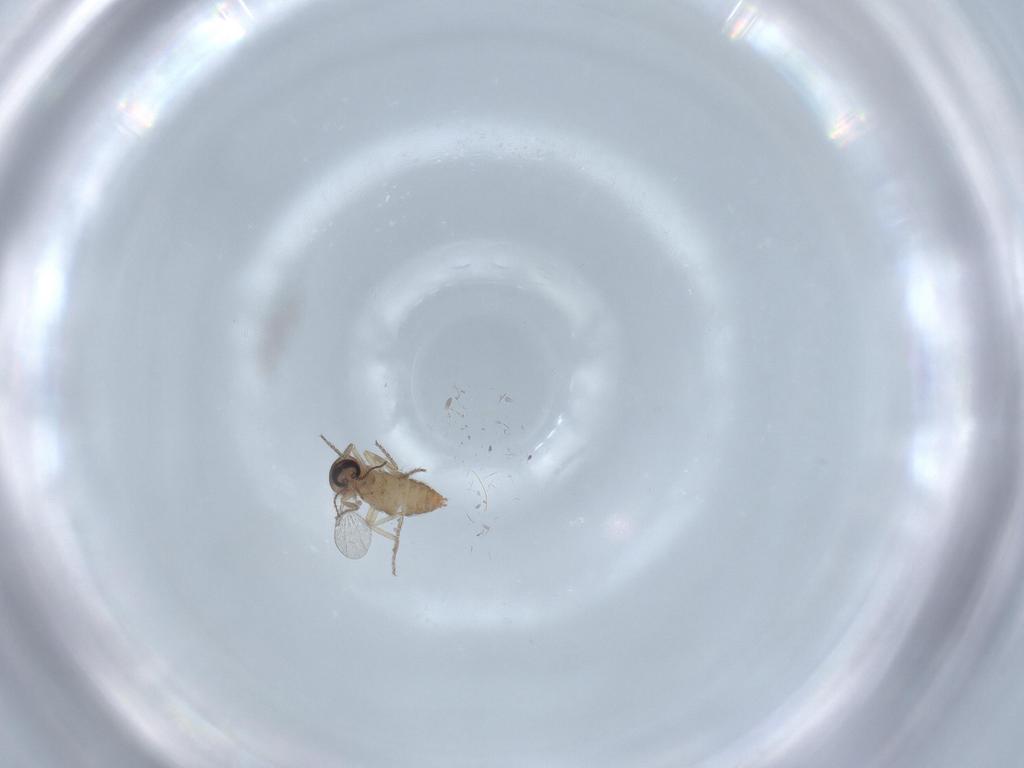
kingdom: Animalia
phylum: Arthropoda
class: Insecta
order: Diptera
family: Ceratopogonidae
